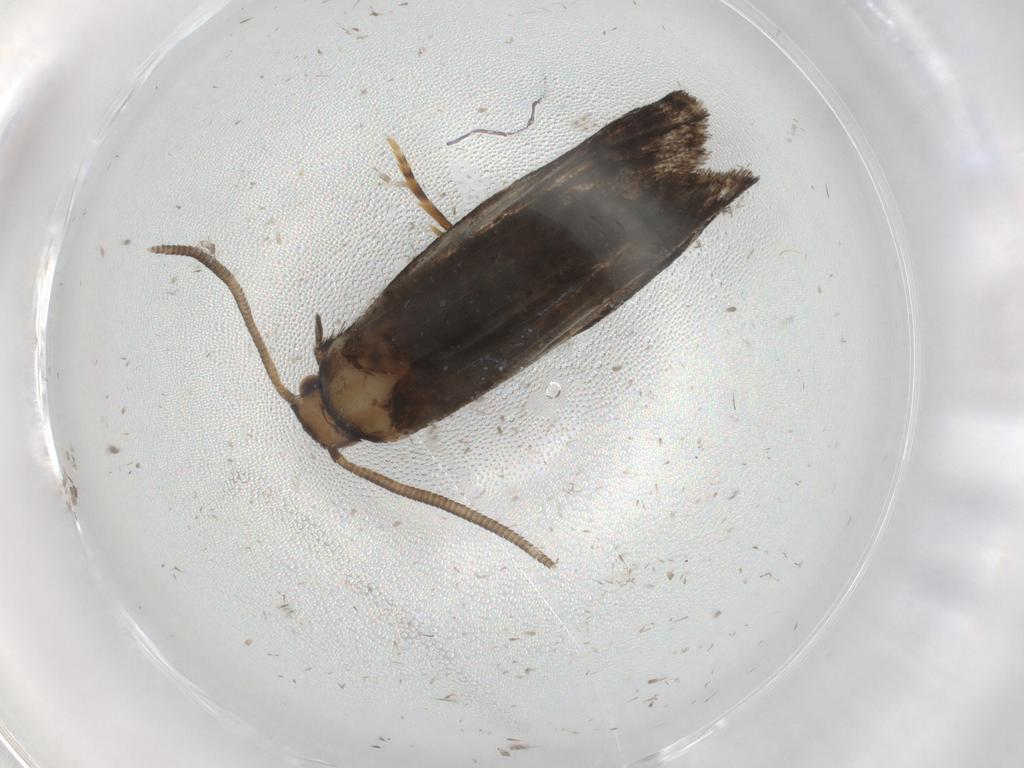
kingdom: Animalia
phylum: Arthropoda
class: Insecta
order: Lepidoptera
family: Dryadaulidae
